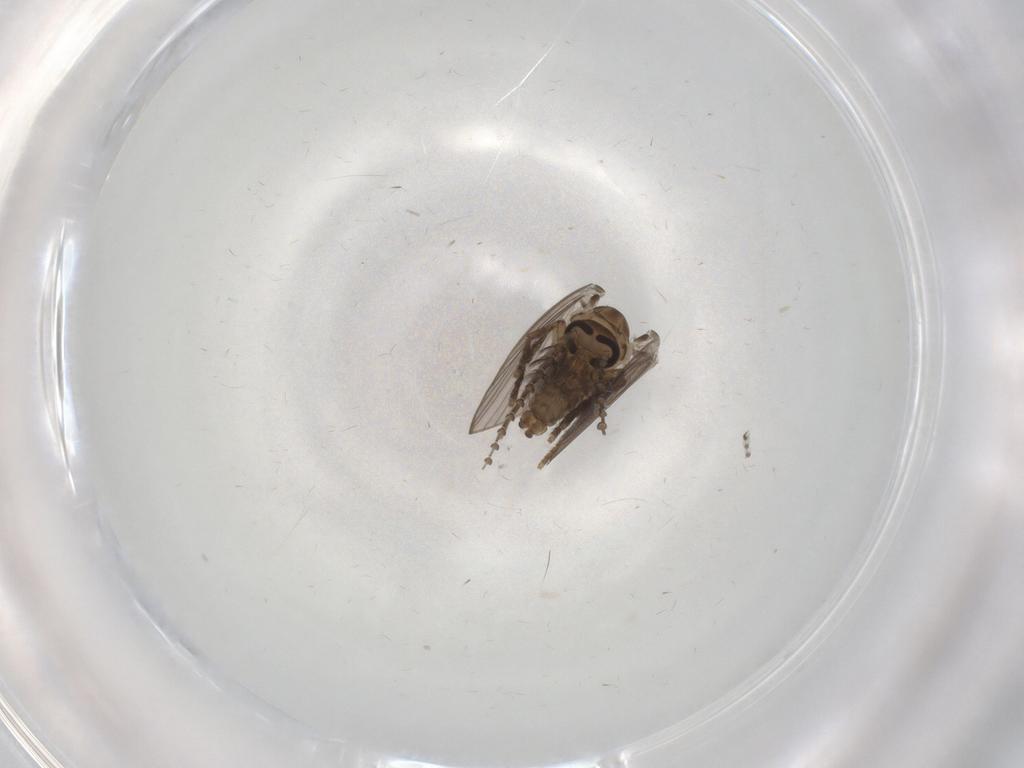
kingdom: Animalia
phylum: Arthropoda
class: Insecta
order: Diptera
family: Psychodidae
